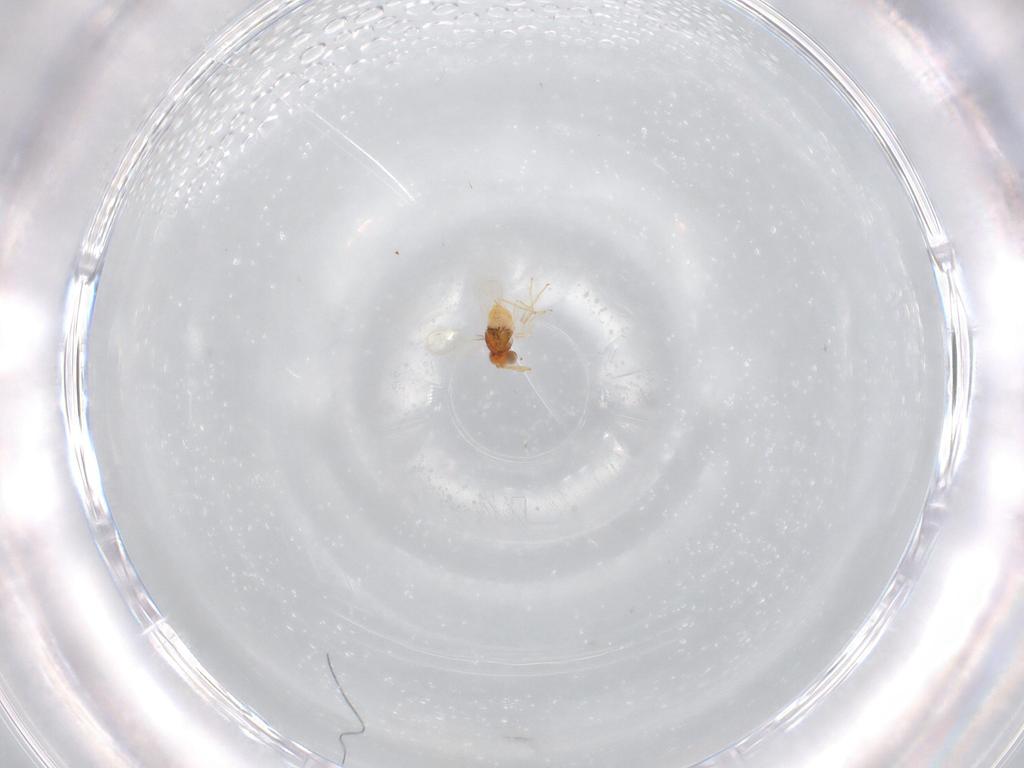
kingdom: Animalia
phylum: Arthropoda
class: Insecta
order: Hymenoptera
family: Aphelinidae
